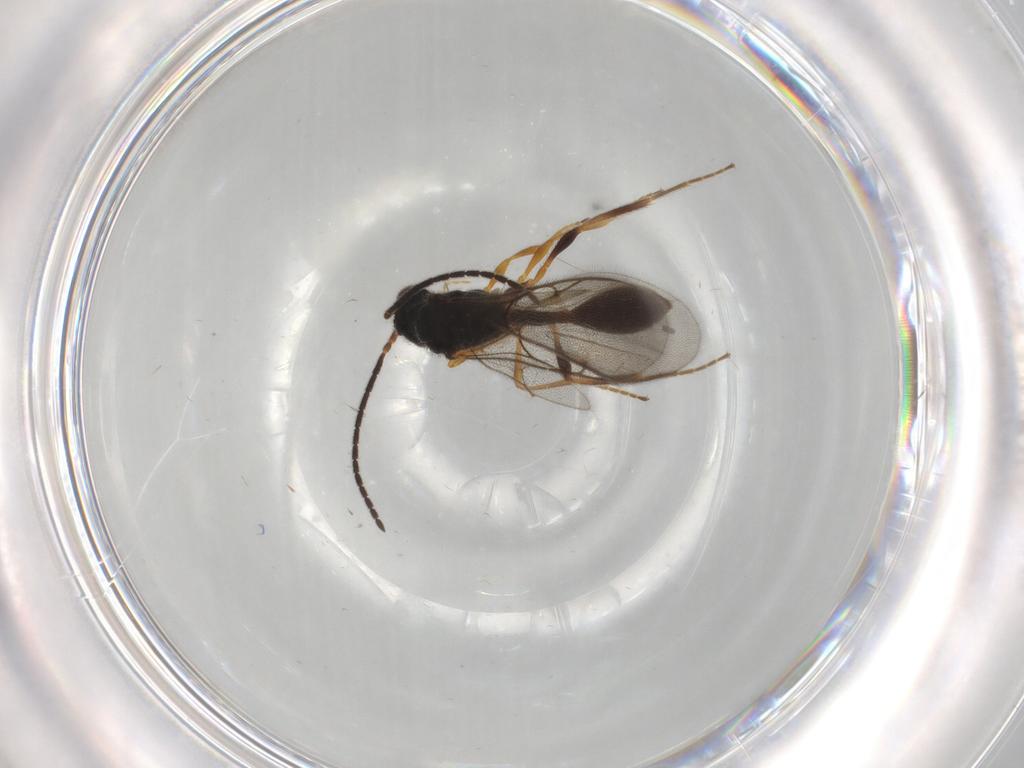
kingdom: Animalia
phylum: Arthropoda
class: Insecta
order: Hymenoptera
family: Diapriidae
